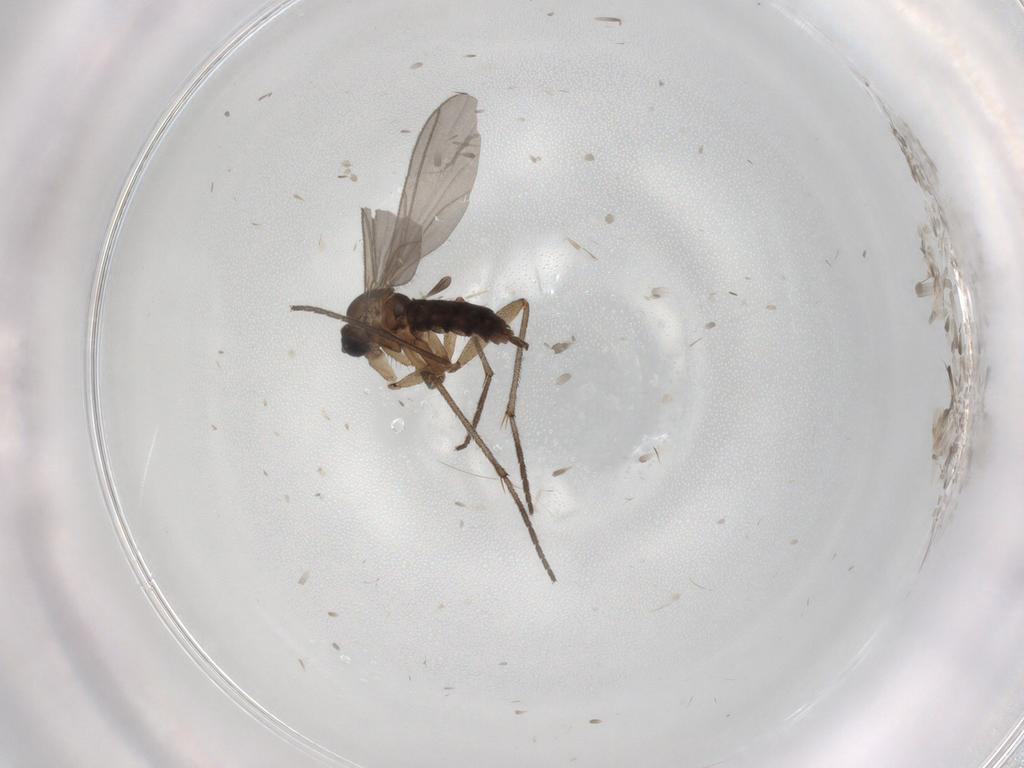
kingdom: Animalia
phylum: Arthropoda
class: Insecta
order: Diptera
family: Sciaridae
